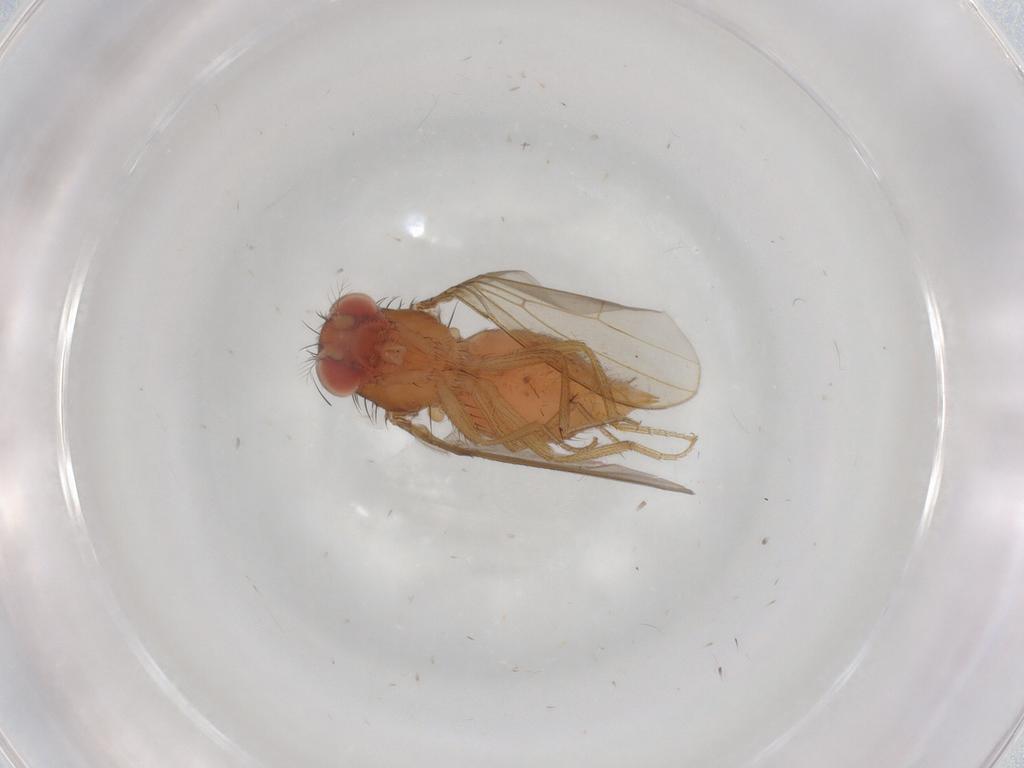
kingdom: Animalia
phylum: Arthropoda
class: Insecta
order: Diptera
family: Drosophilidae
